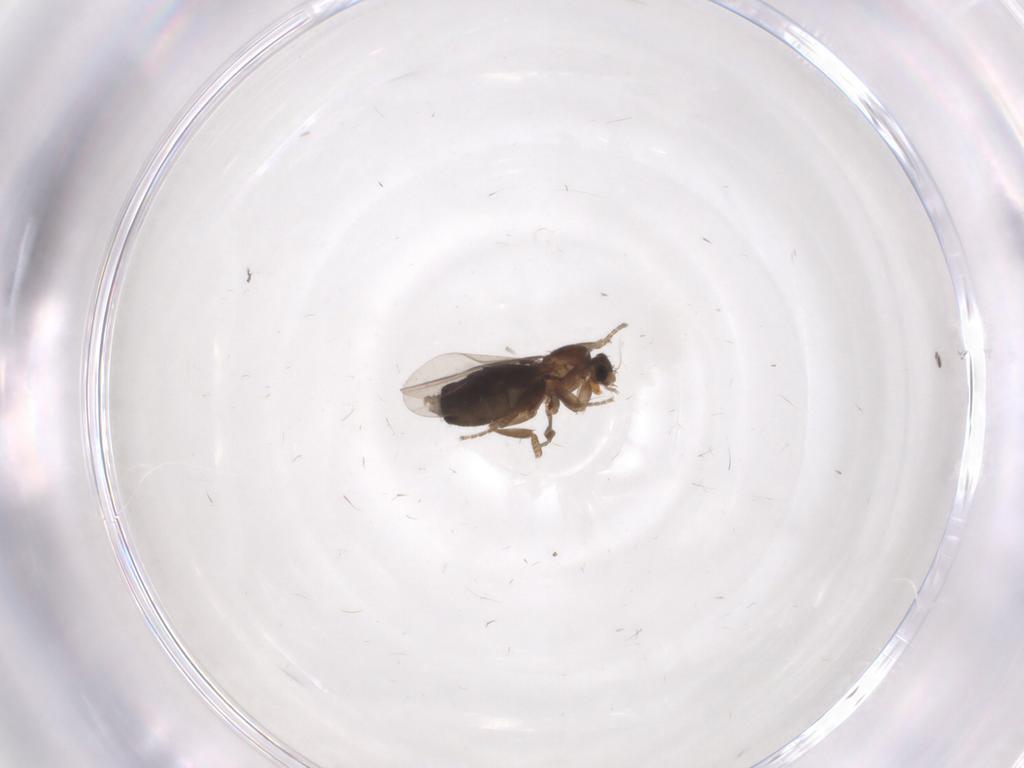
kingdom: Animalia
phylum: Arthropoda
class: Insecta
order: Diptera
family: Sciaridae
